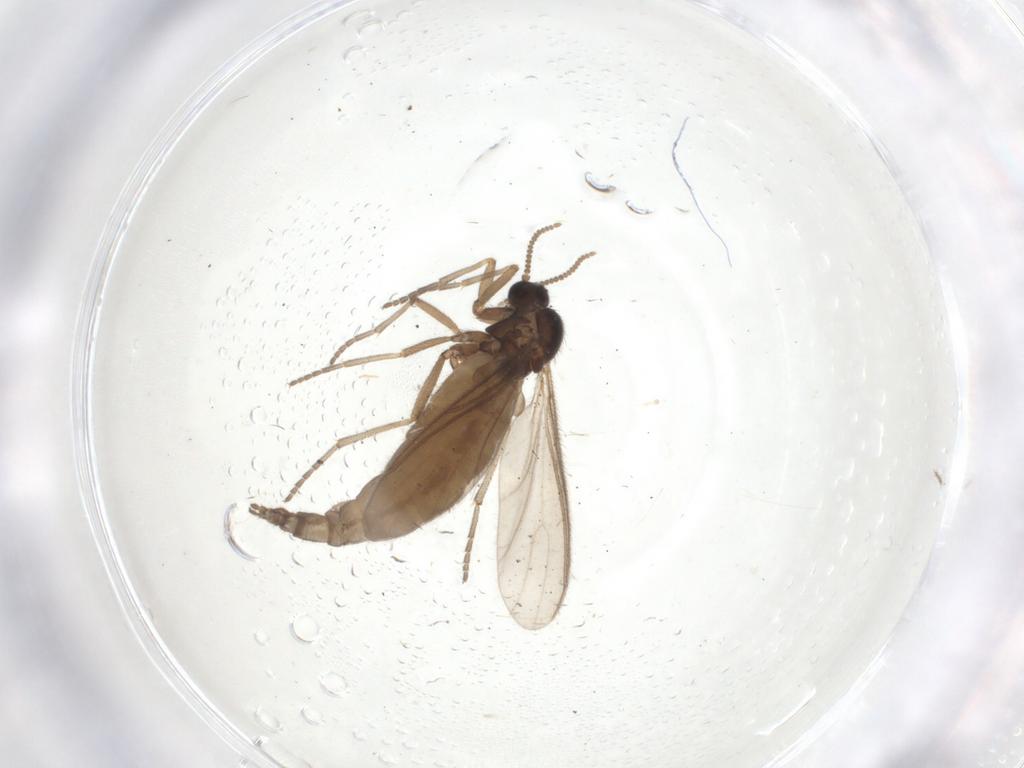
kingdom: Animalia
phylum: Arthropoda
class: Insecta
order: Diptera
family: Sciaridae
